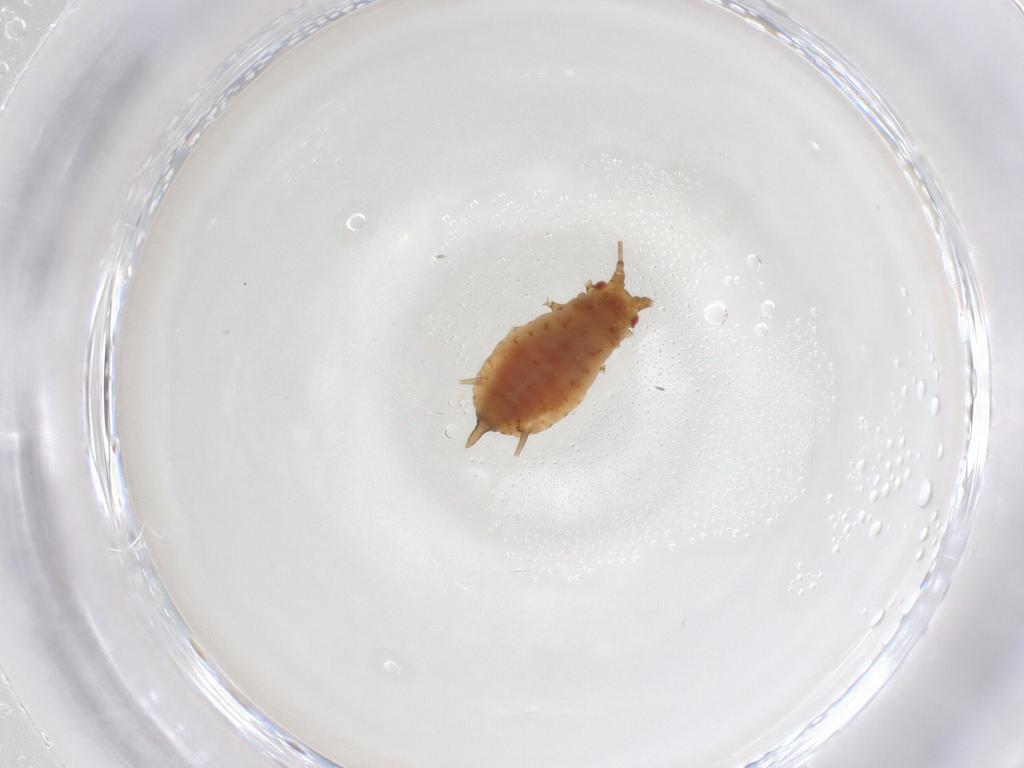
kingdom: Animalia
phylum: Arthropoda
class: Insecta
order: Hemiptera
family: Aphididae
